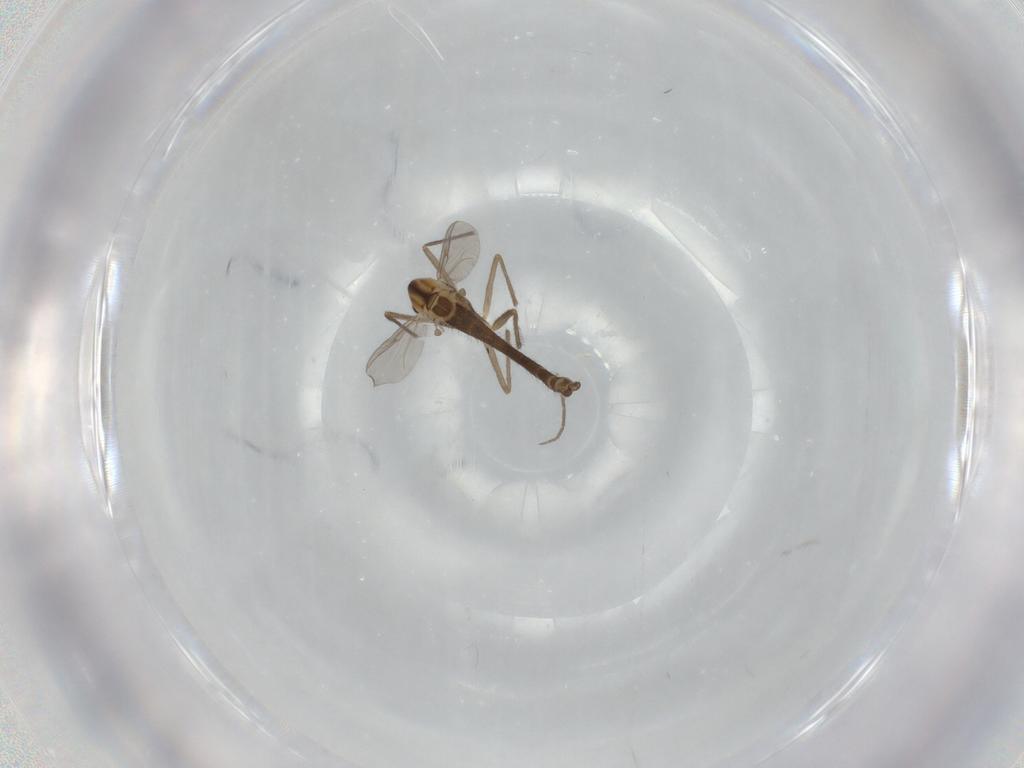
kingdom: Animalia
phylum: Arthropoda
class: Insecta
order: Diptera
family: Chironomidae
